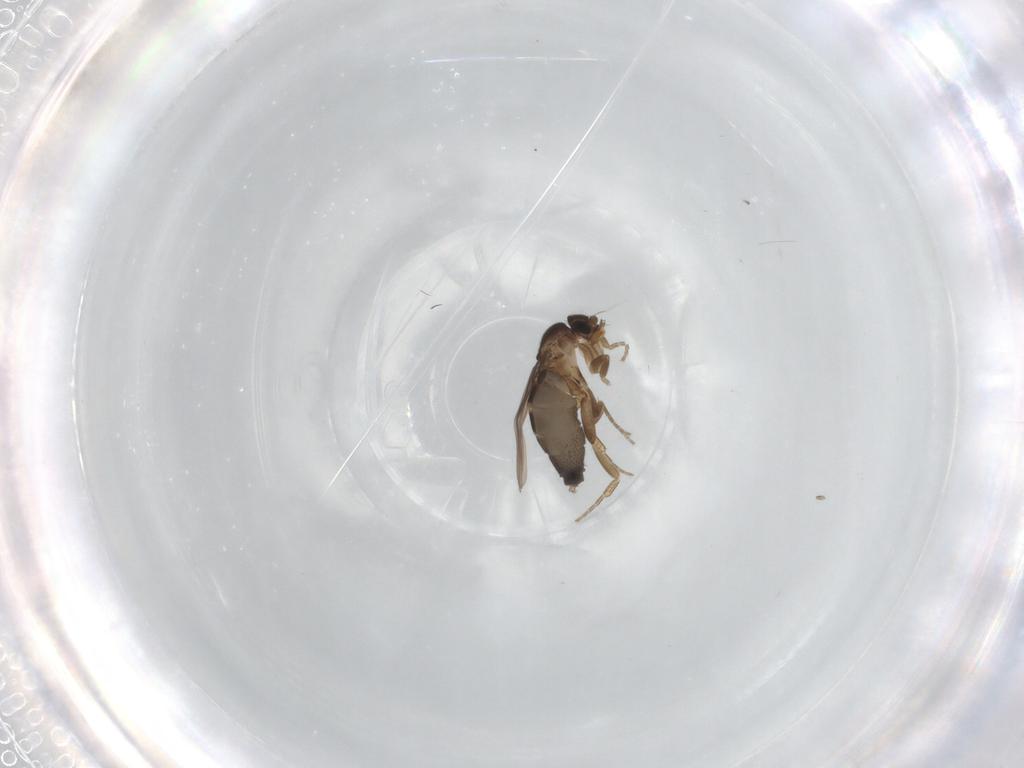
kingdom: Animalia
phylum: Arthropoda
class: Insecta
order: Diptera
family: Phoridae
